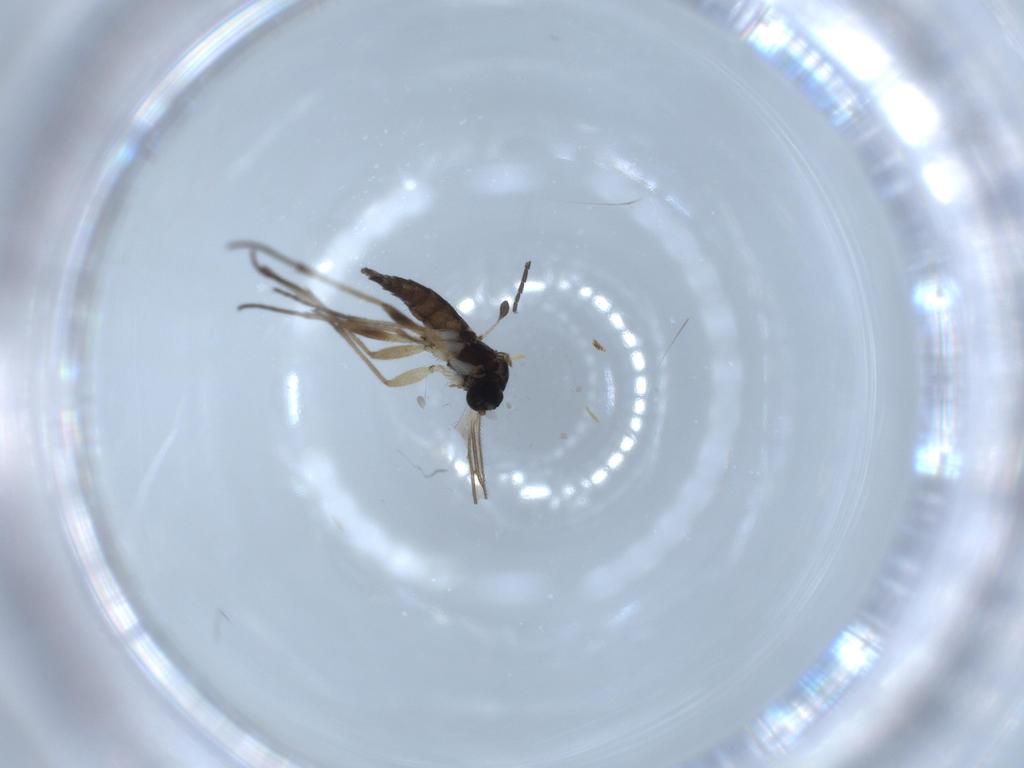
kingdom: Animalia
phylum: Arthropoda
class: Insecta
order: Diptera
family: Sciaridae
